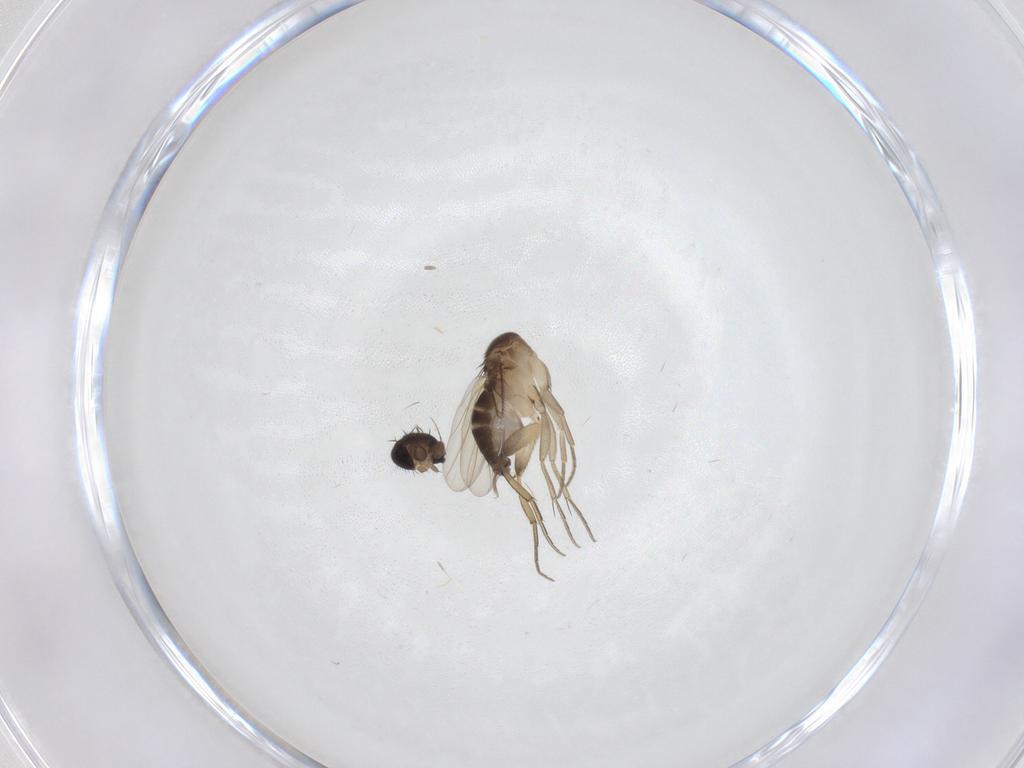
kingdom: Animalia
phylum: Arthropoda
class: Insecta
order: Diptera
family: Phoridae
